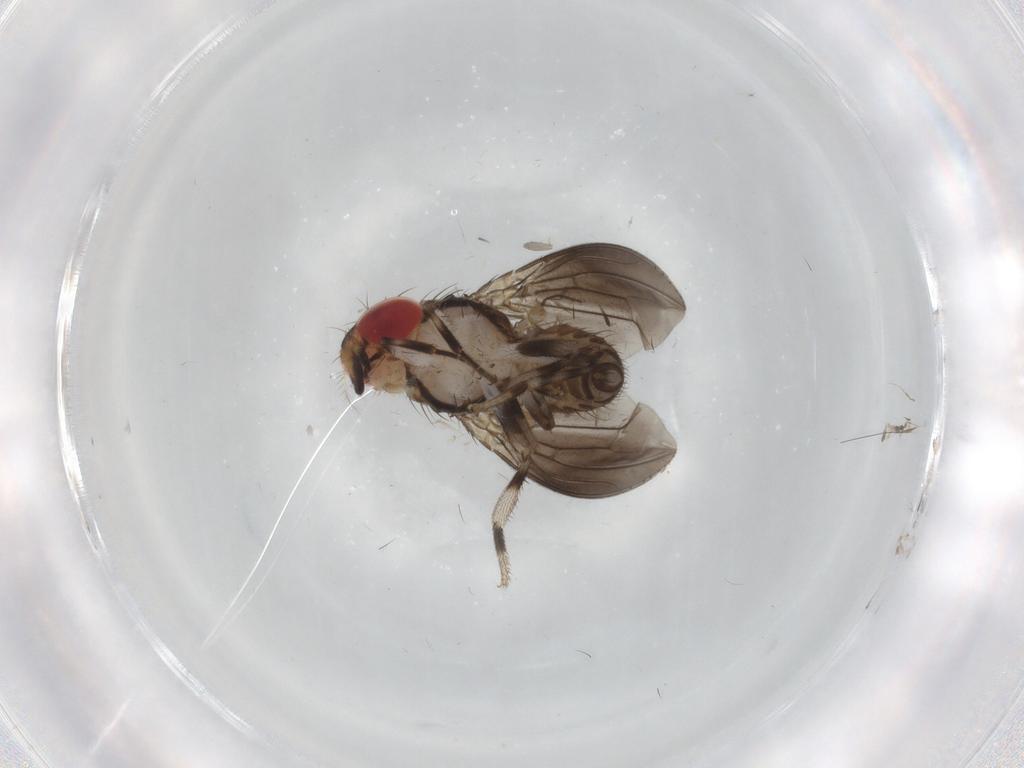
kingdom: Animalia
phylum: Arthropoda
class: Insecta
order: Diptera
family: Drosophilidae
